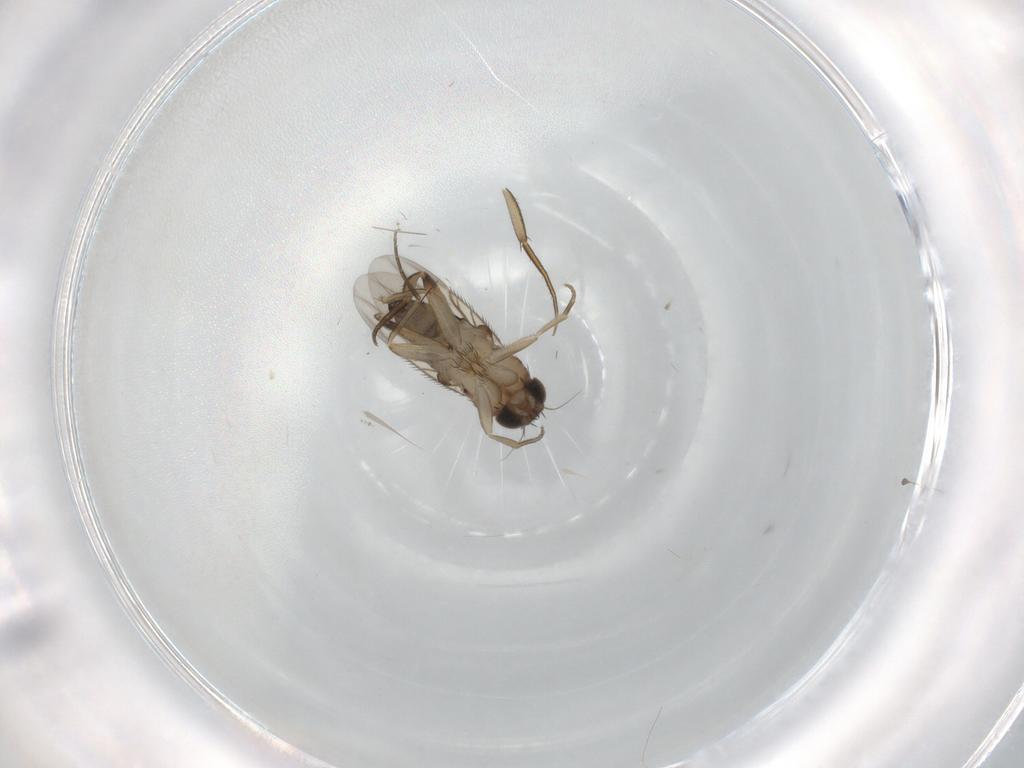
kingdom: Animalia
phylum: Arthropoda
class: Insecta
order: Diptera
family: Phoridae
